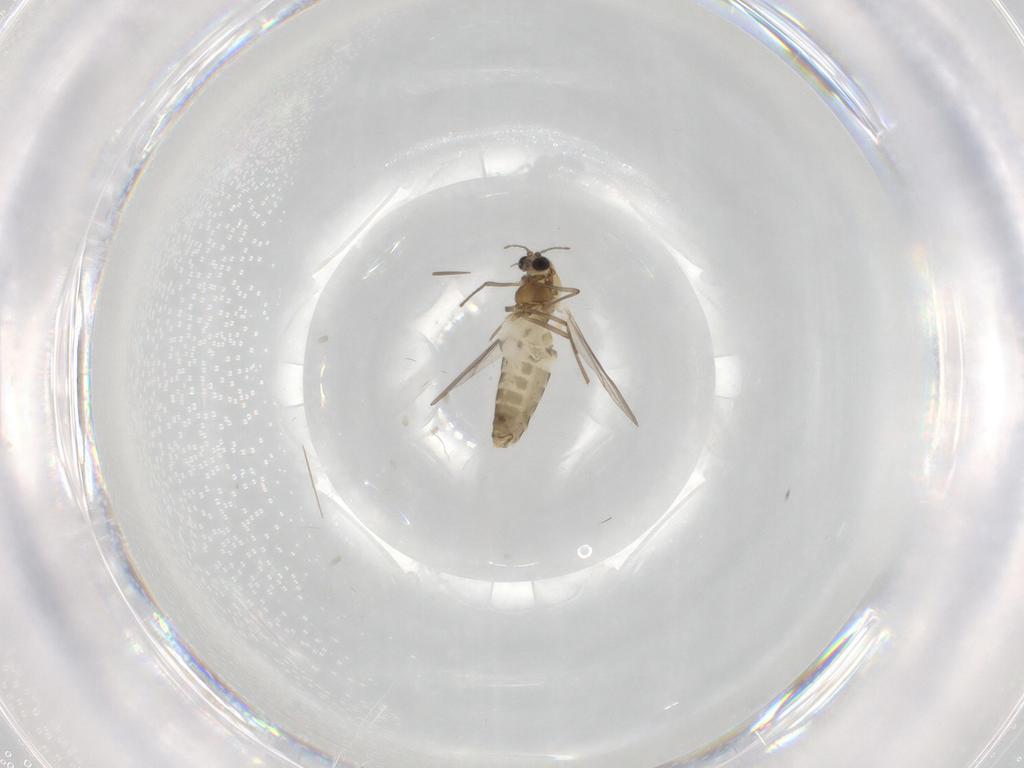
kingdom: Animalia
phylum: Arthropoda
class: Insecta
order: Diptera
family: Chironomidae
